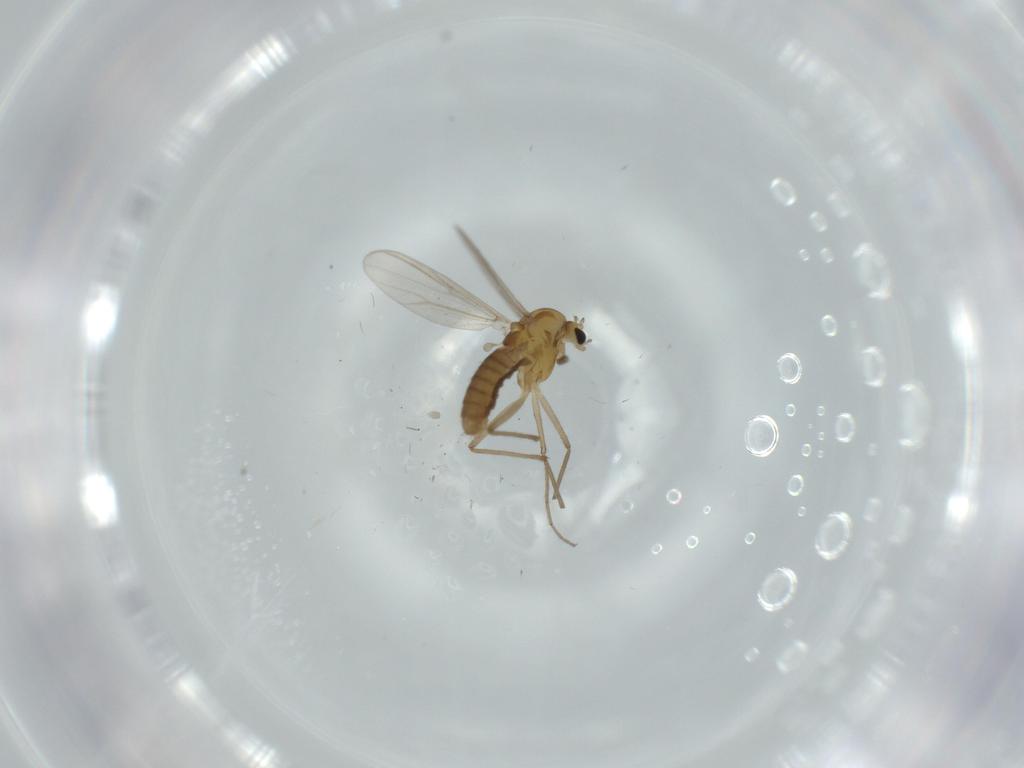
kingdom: Animalia
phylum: Arthropoda
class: Insecta
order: Diptera
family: Chironomidae
